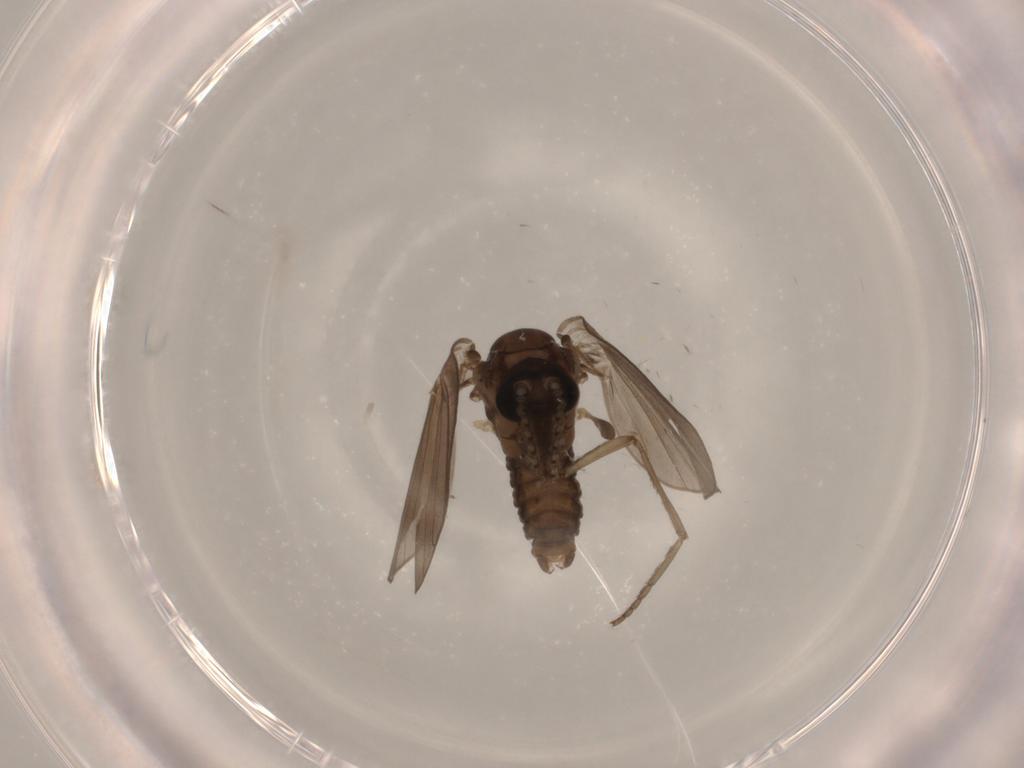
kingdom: Animalia
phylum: Arthropoda
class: Insecta
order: Diptera
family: Psychodidae
